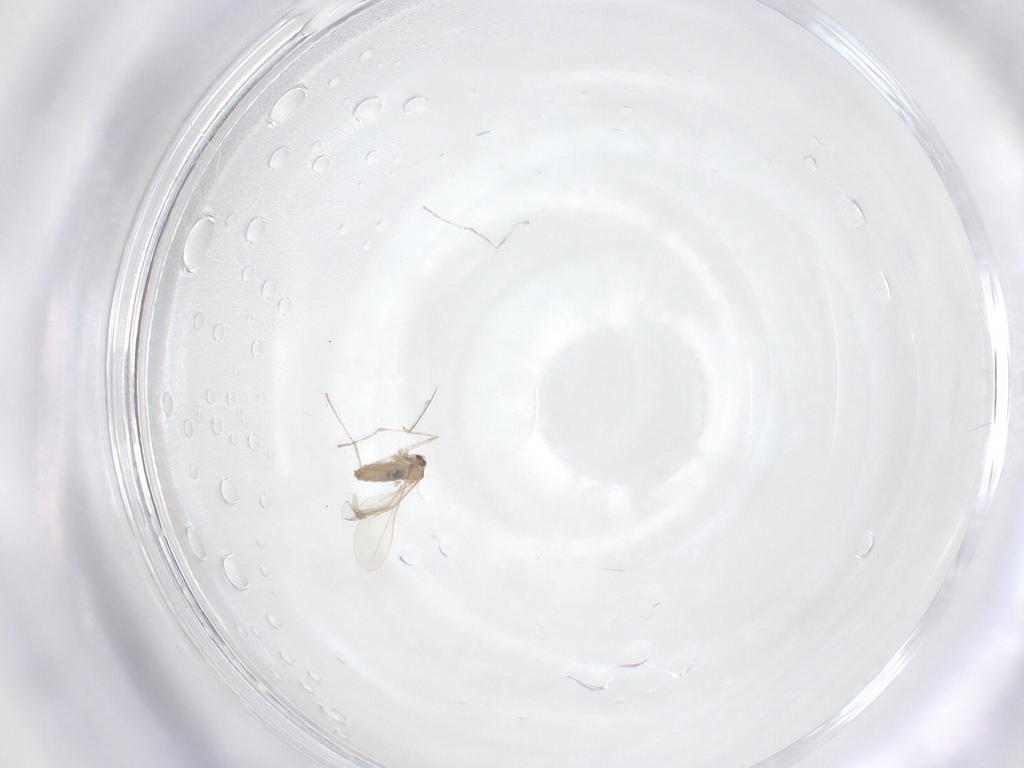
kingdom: Animalia
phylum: Arthropoda
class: Insecta
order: Diptera
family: Cecidomyiidae
